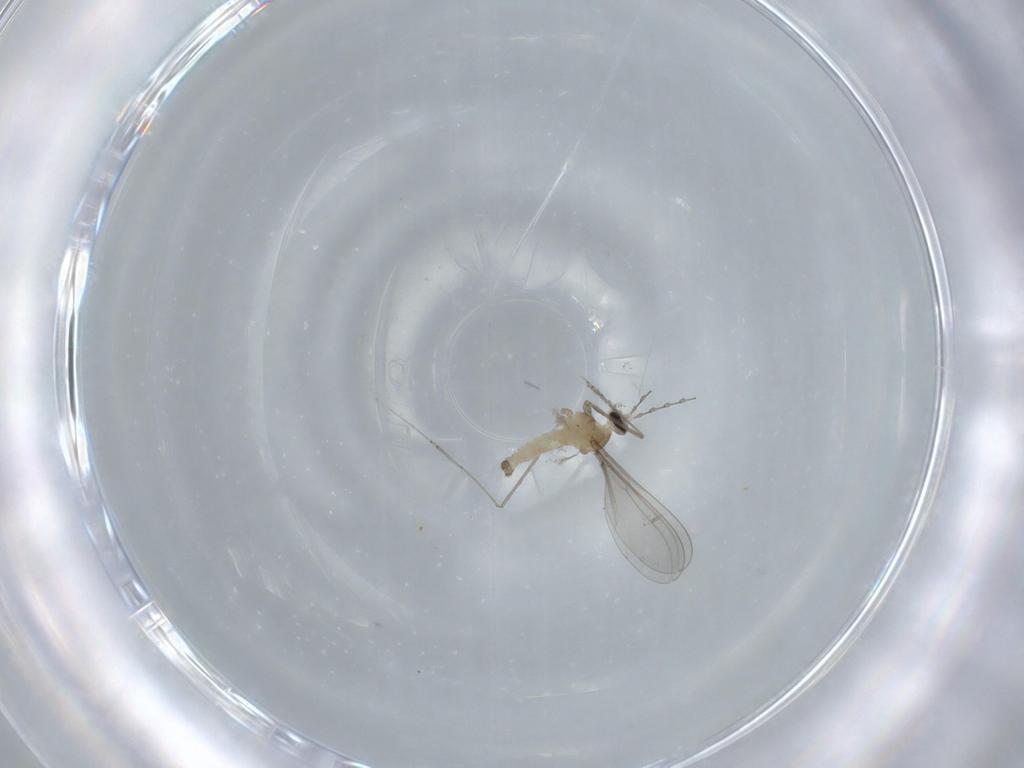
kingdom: Animalia
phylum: Arthropoda
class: Insecta
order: Diptera
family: Cecidomyiidae
